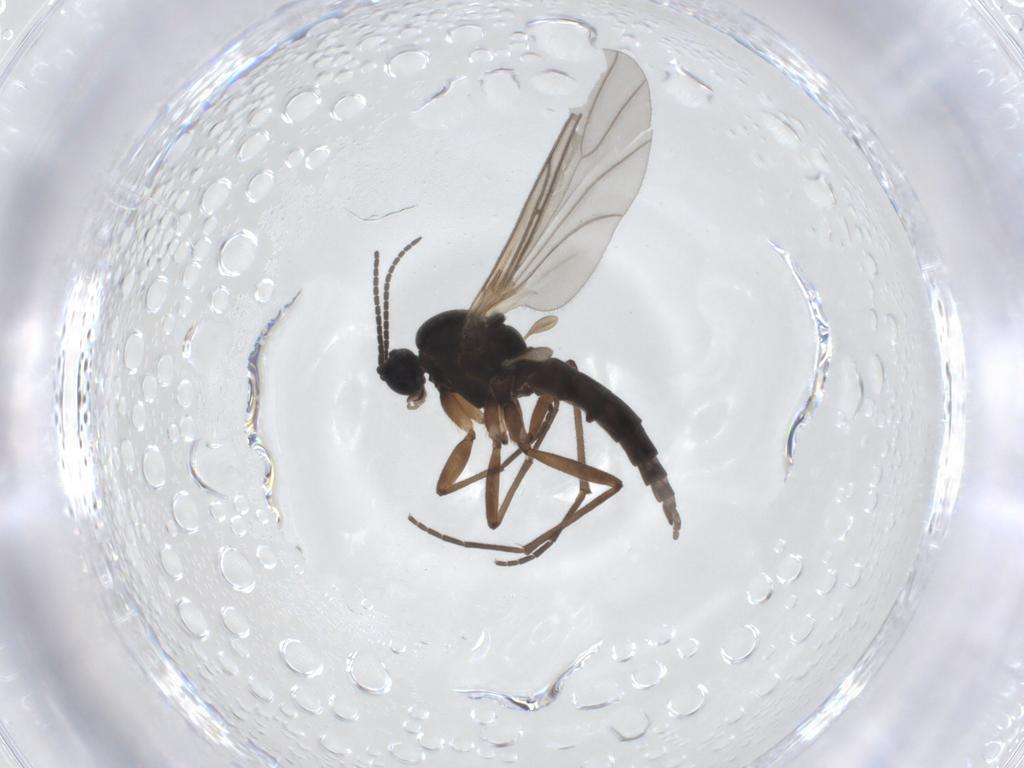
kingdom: Animalia
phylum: Arthropoda
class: Insecta
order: Diptera
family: Sciaridae
